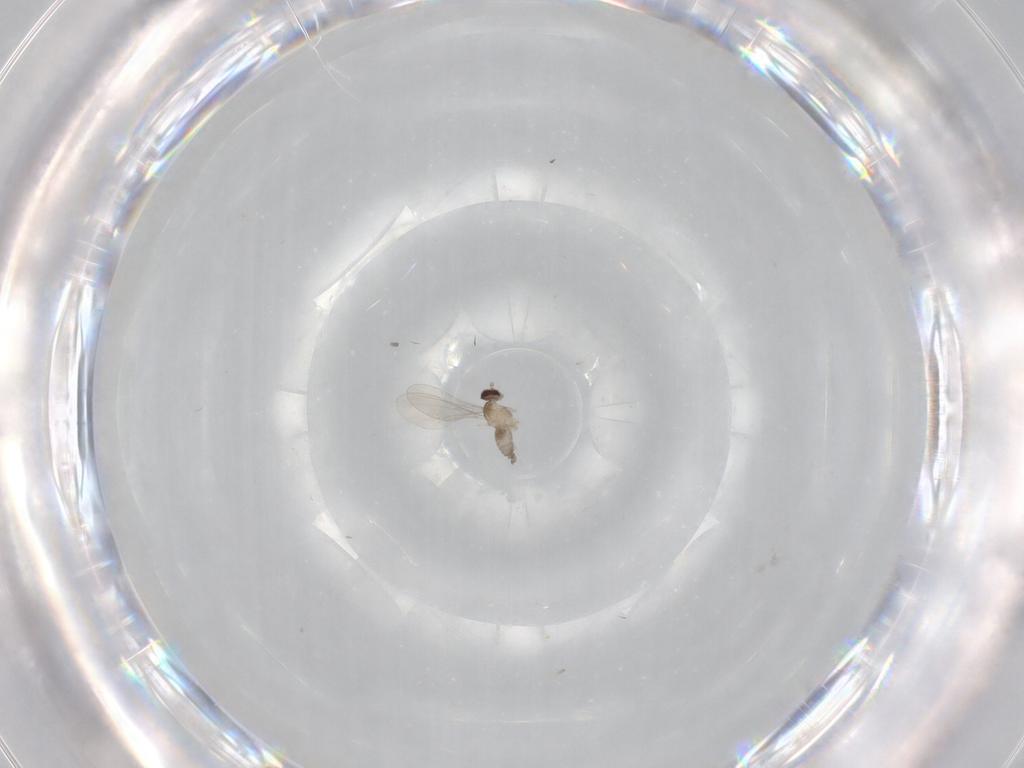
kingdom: Animalia
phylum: Arthropoda
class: Insecta
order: Diptera
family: Cecidomyiidae
